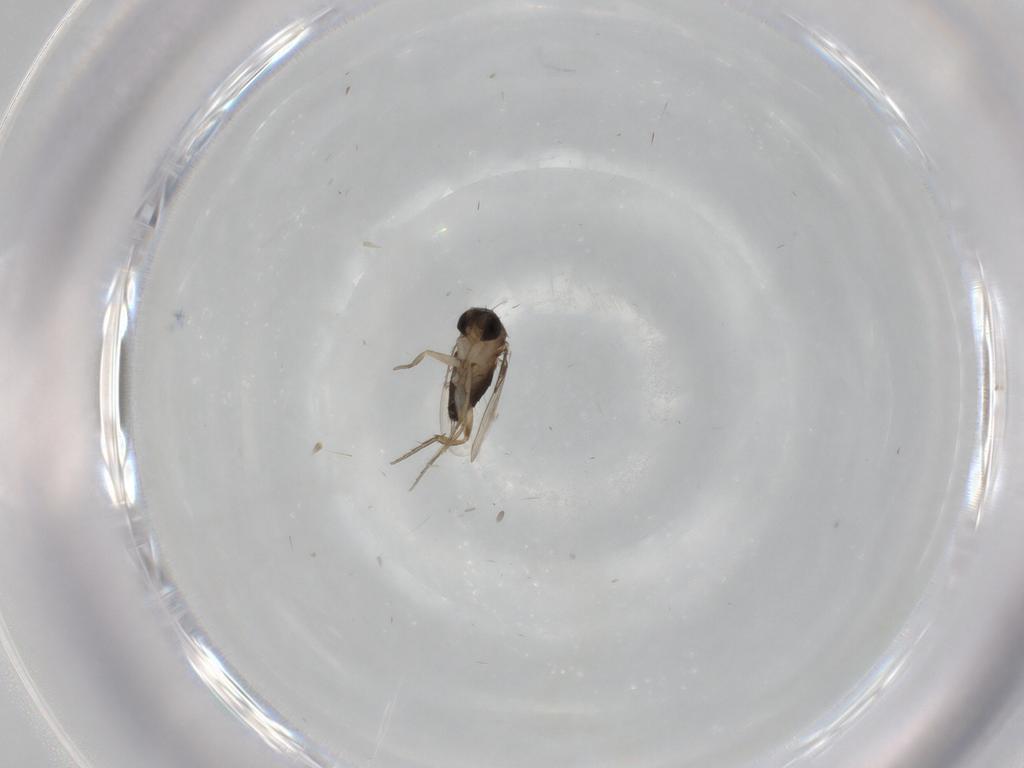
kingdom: Animalia
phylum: Arthropoda
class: Insecta
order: Diptera
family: Phoridae
